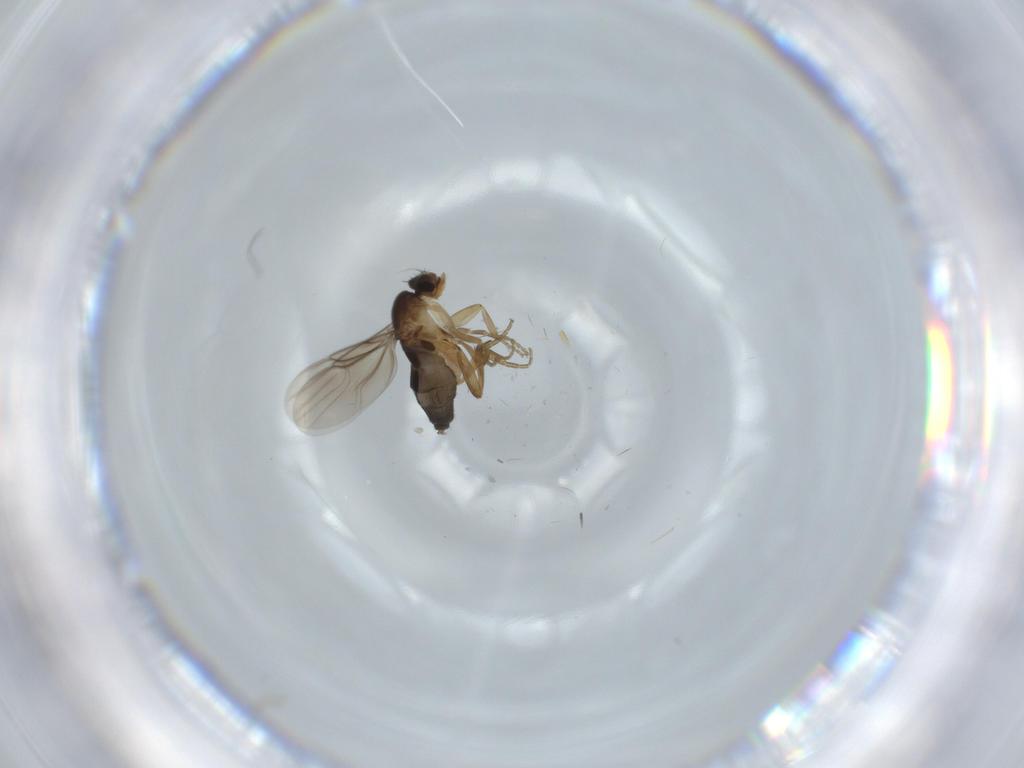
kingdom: Animalia
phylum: Arthropoda
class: Insecta
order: Diptera
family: Phoridae
